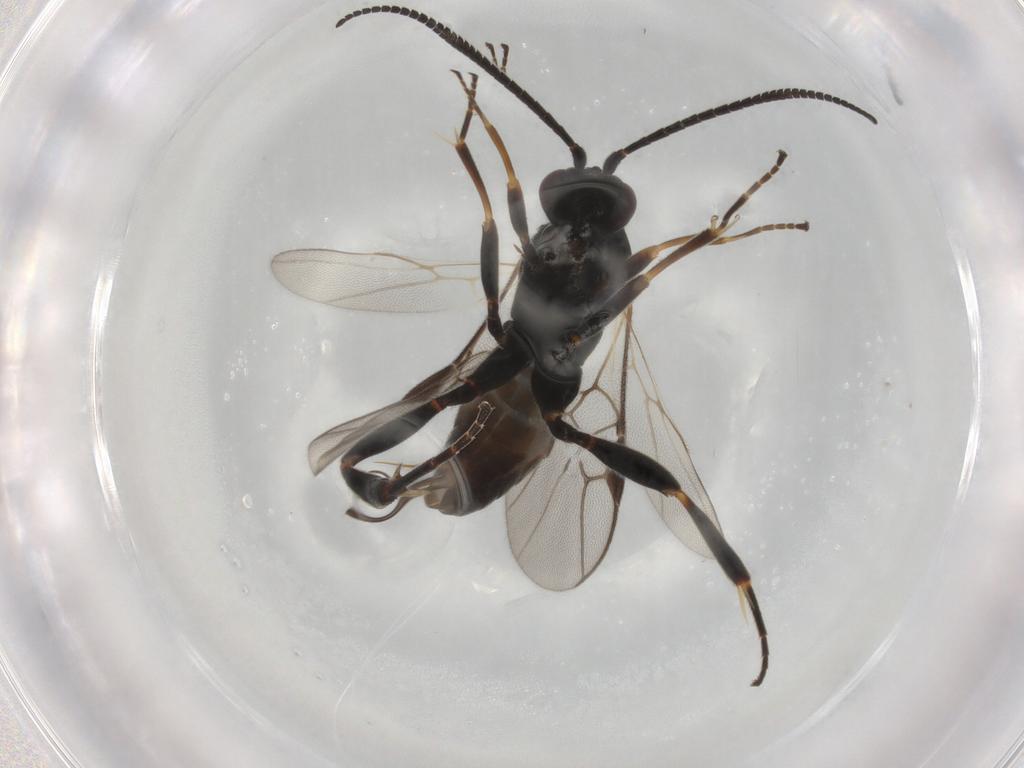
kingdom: Animalia
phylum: Arthropoda
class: Insecta
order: Hymenoptera
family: Braconidae
